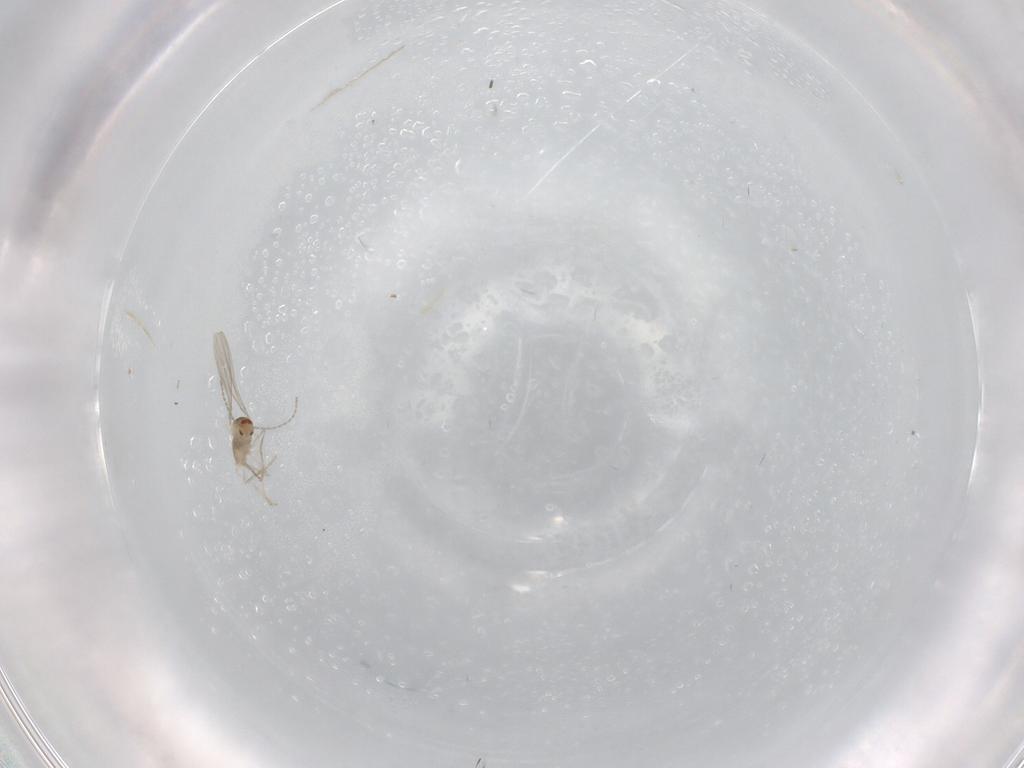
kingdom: Animalia
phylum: Arthropoda
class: Insecta
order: Diptera
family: Cecidomyiidae
